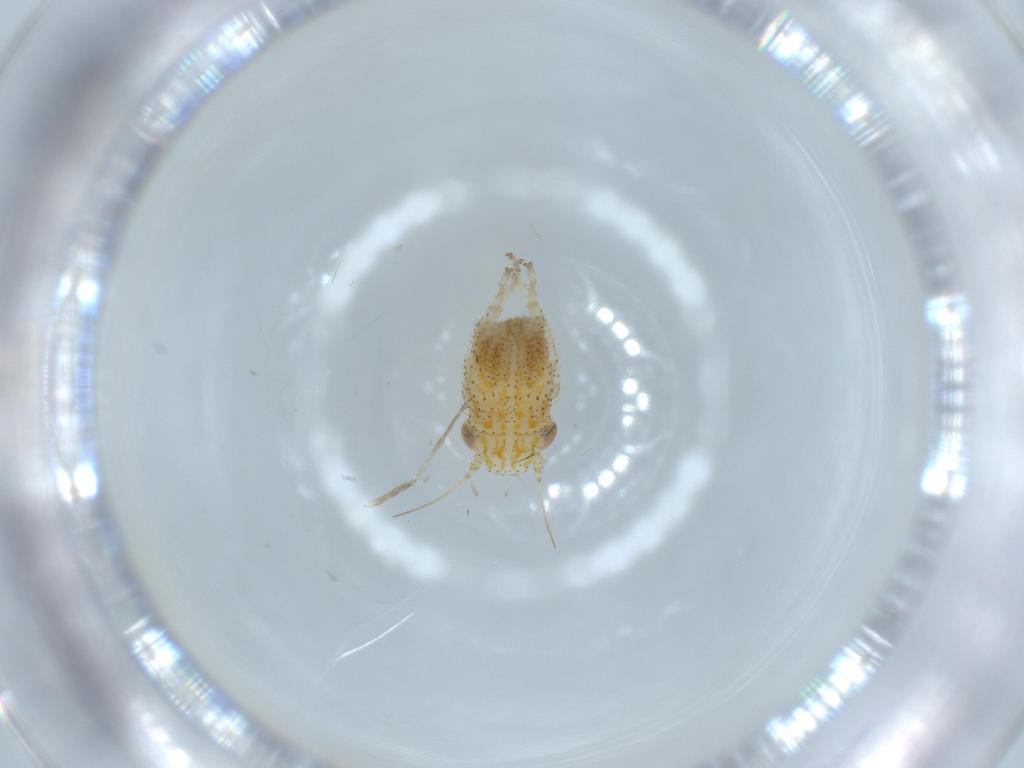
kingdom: Animalia
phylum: Arthropoda
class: Insecta
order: Hemiptera
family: Cicadellidae
